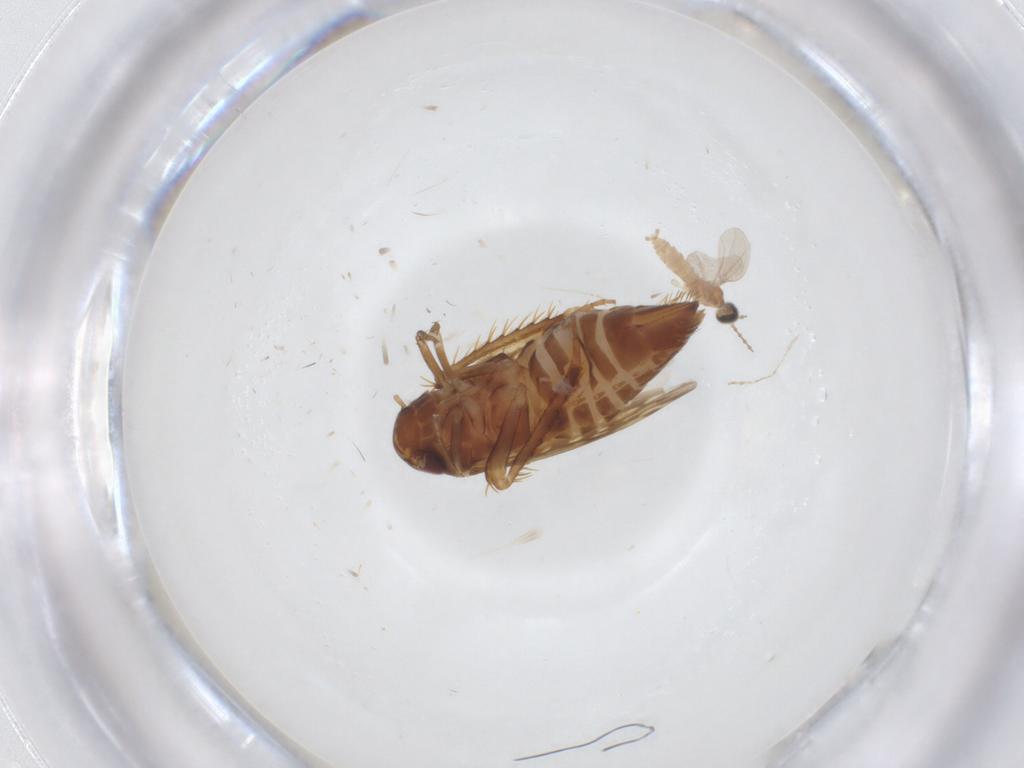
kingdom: Animalia
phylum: Arthropoda
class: Insecta
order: Hemiptera
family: Cicadellidae
